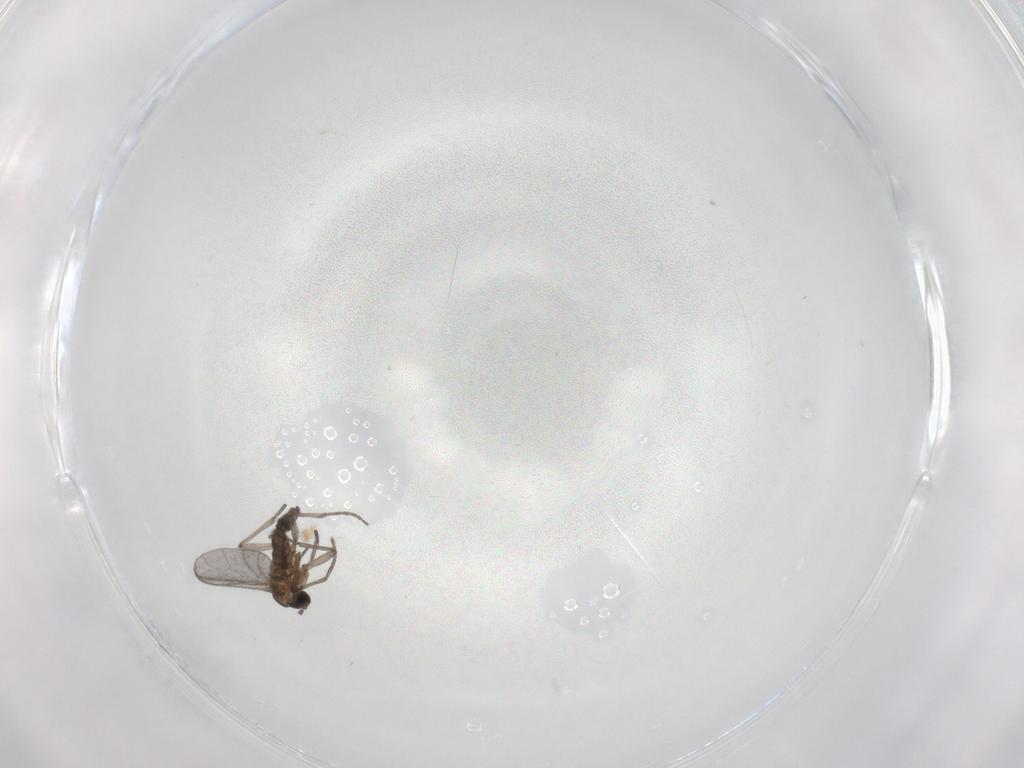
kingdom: Animalia
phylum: Arthropoda
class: Insecta
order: Diptera
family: Sciaridae
